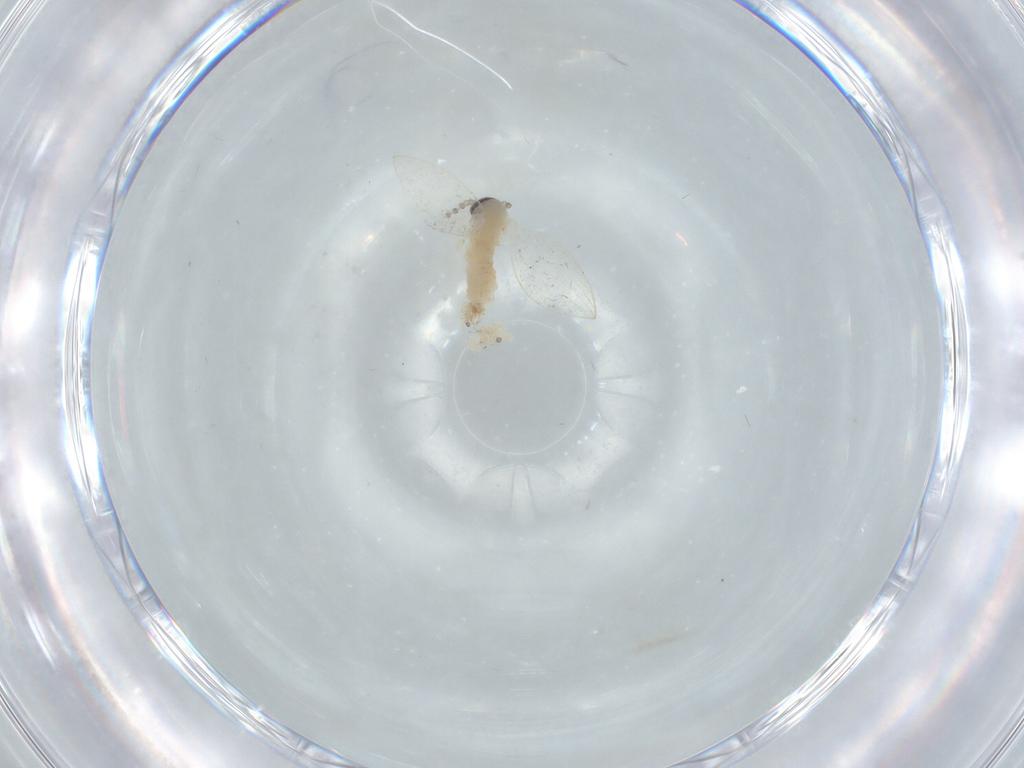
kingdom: Animalia
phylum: Arthropoda
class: Insecta
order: Diptera
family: Psychodidae
